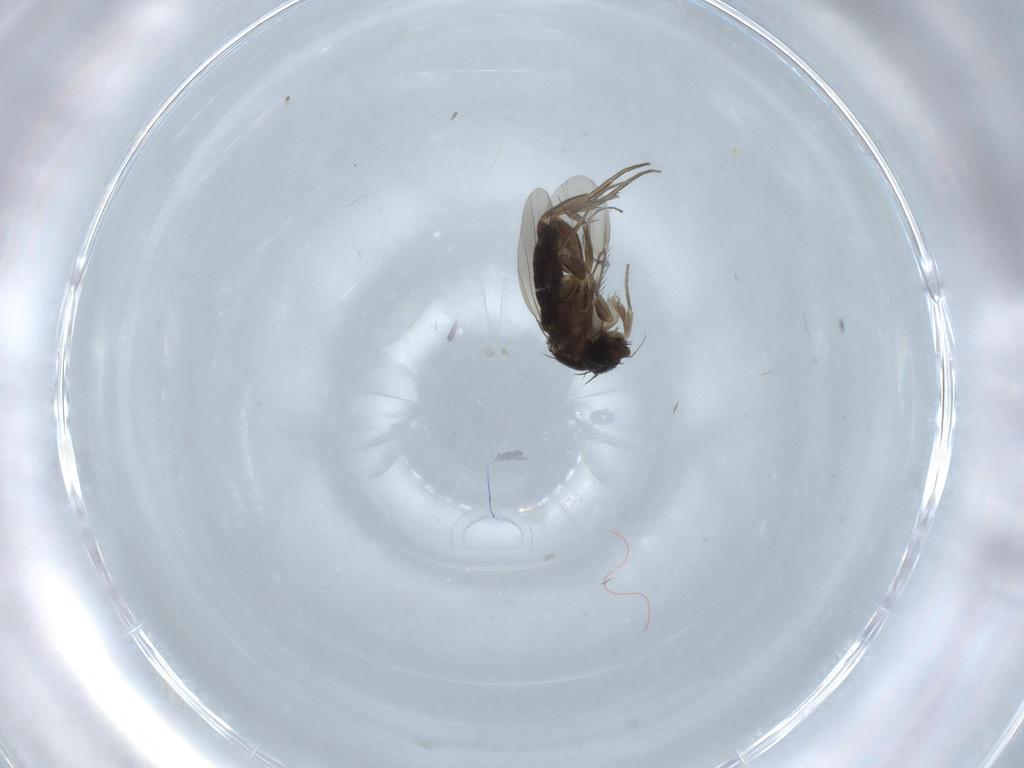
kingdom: Animalia
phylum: Arthropoda
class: Insecta
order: Diptera
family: Phoridae
